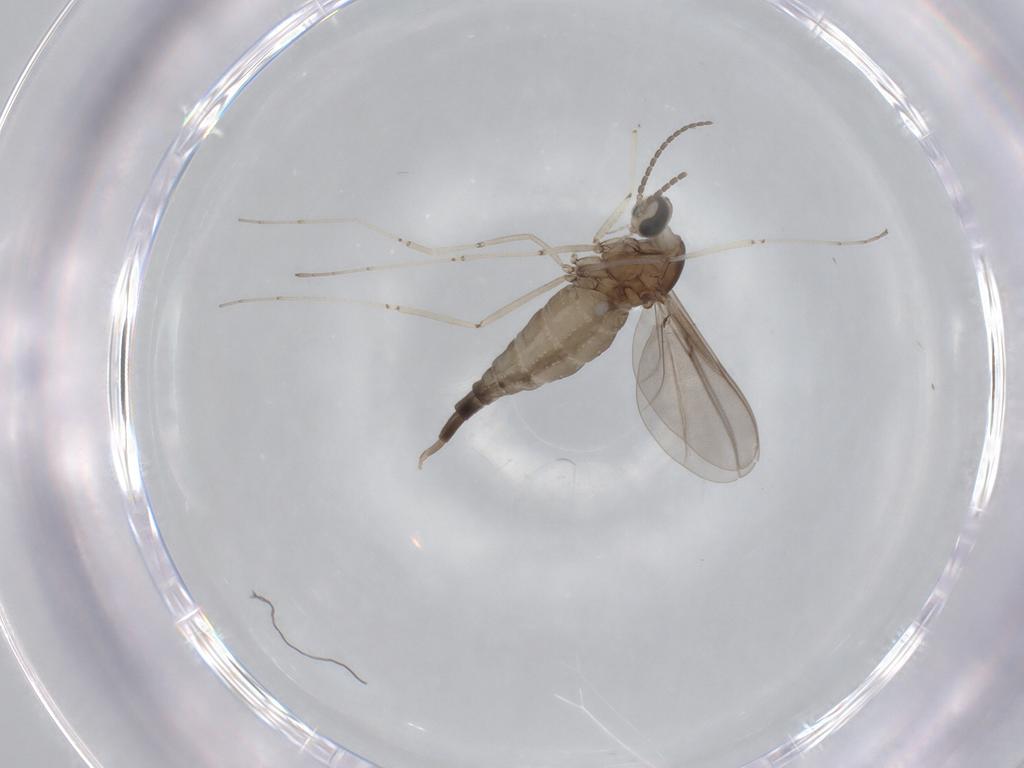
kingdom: Animalia
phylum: Arthropoda
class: Insecta
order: Diptera
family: Cecidomyiidae
